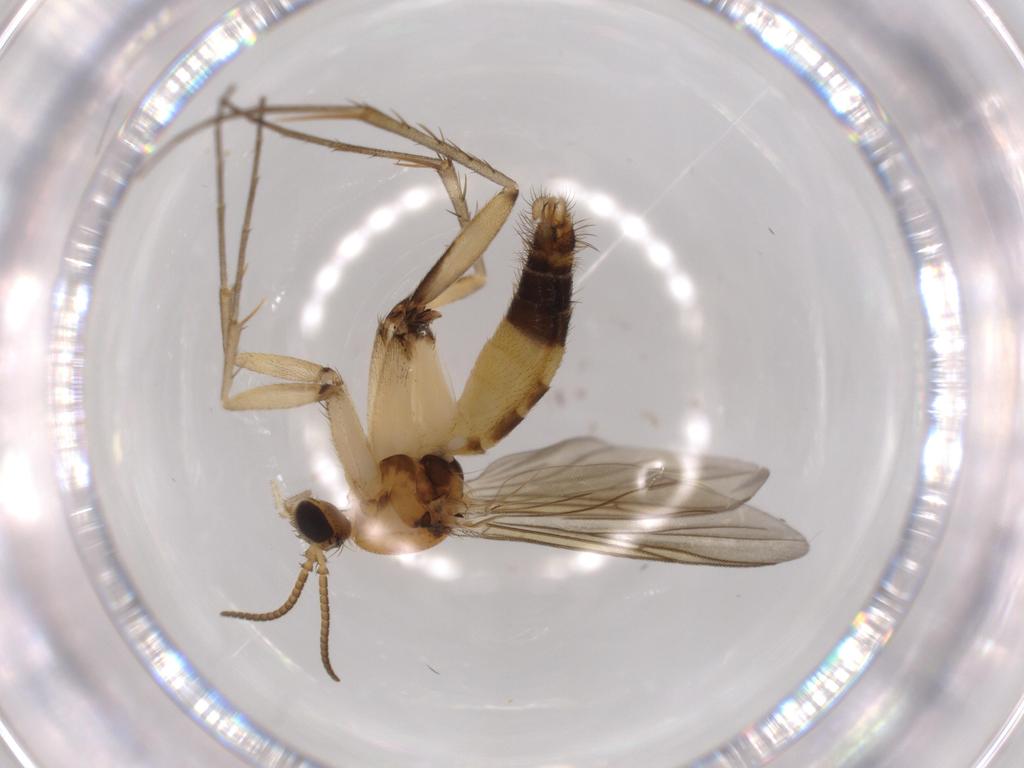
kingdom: Animalia
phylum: Arthropoda
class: Insecta
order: Diptera
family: Mycetophilidae
